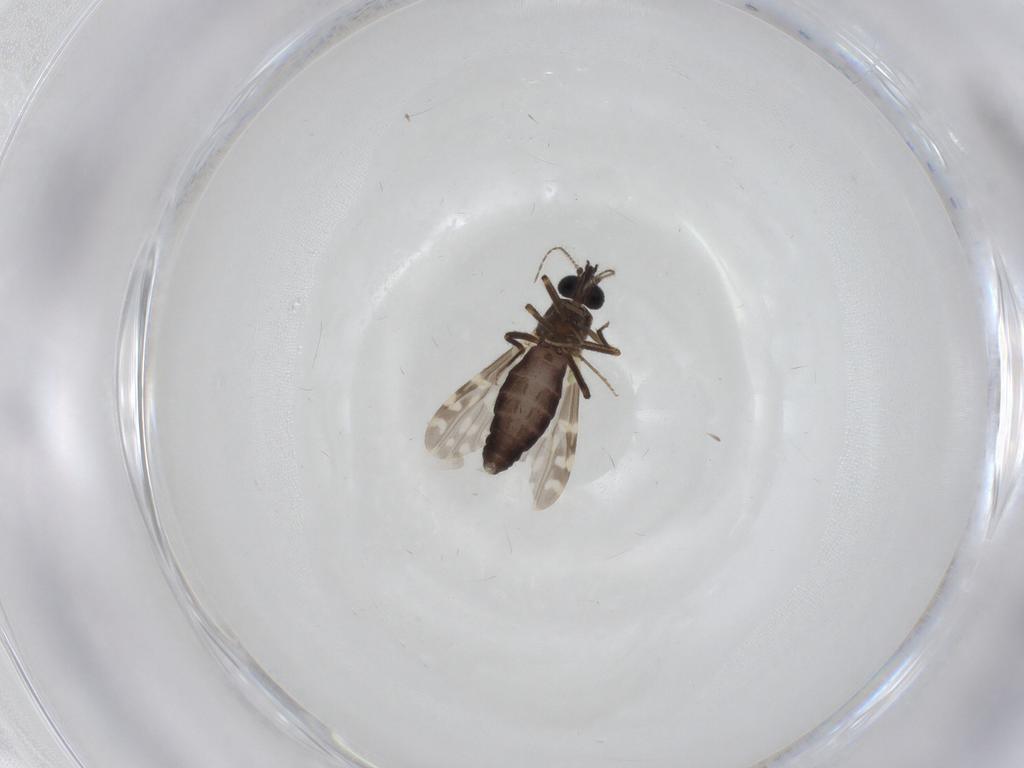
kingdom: Animalia
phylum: Arthropoda
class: Insecta
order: Diptera
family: Ceratopogonidae
